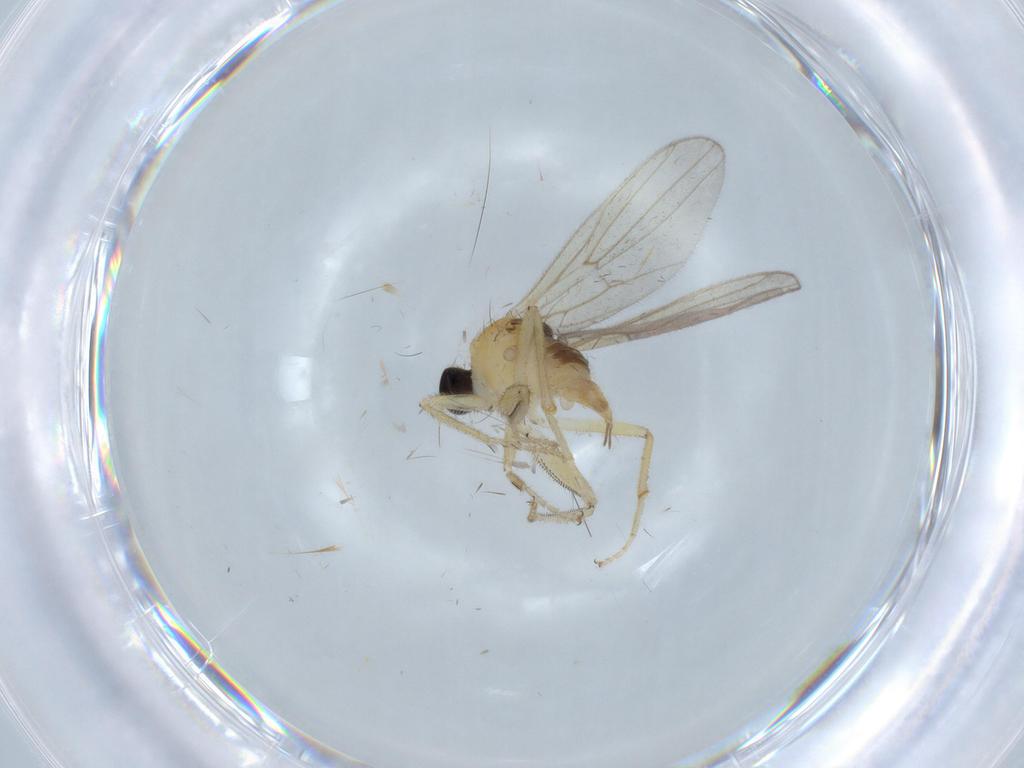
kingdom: Animalia
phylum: Arthropoda
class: Insecta
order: Diptera
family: Hybotidae
